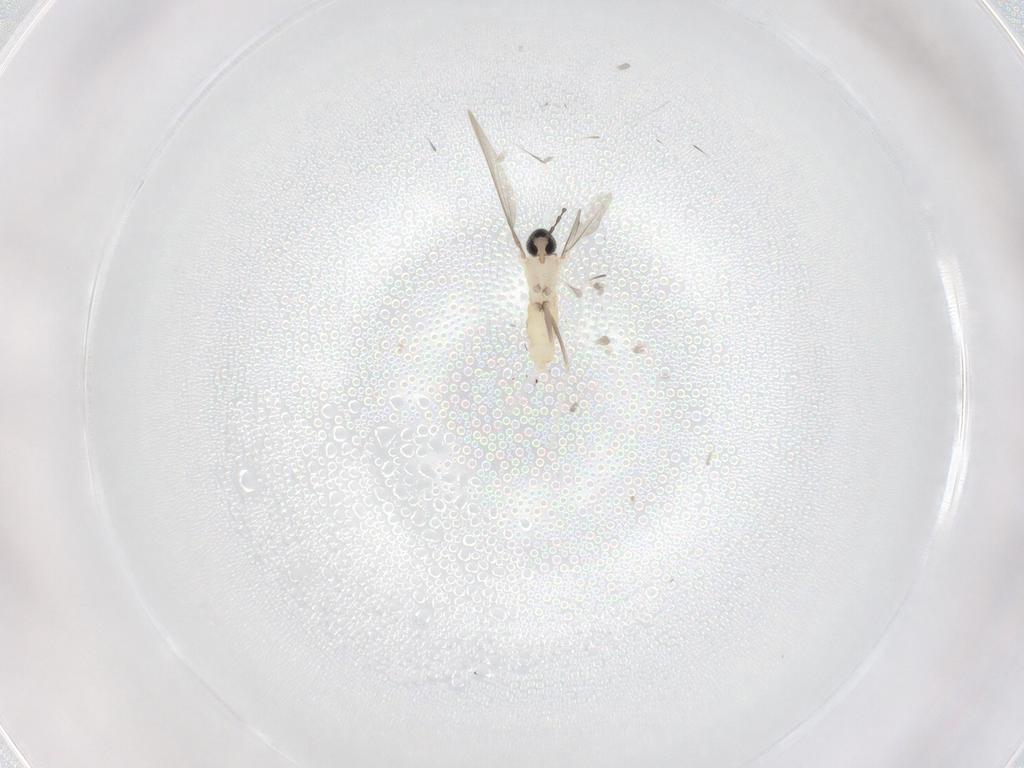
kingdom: Animalia
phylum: Arthropoda
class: Insecta
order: Diptera
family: Cecidomyiidae
